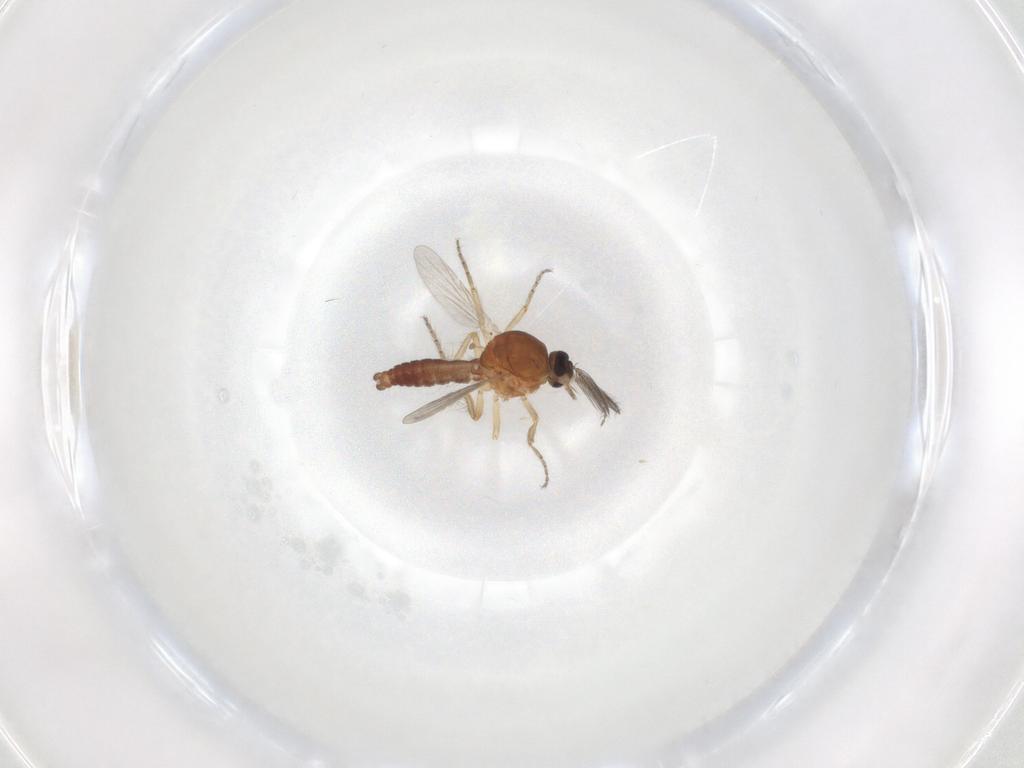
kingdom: Animalia
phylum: Arthropoda
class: Insecta
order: Diptera
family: Ceratopogonidae
